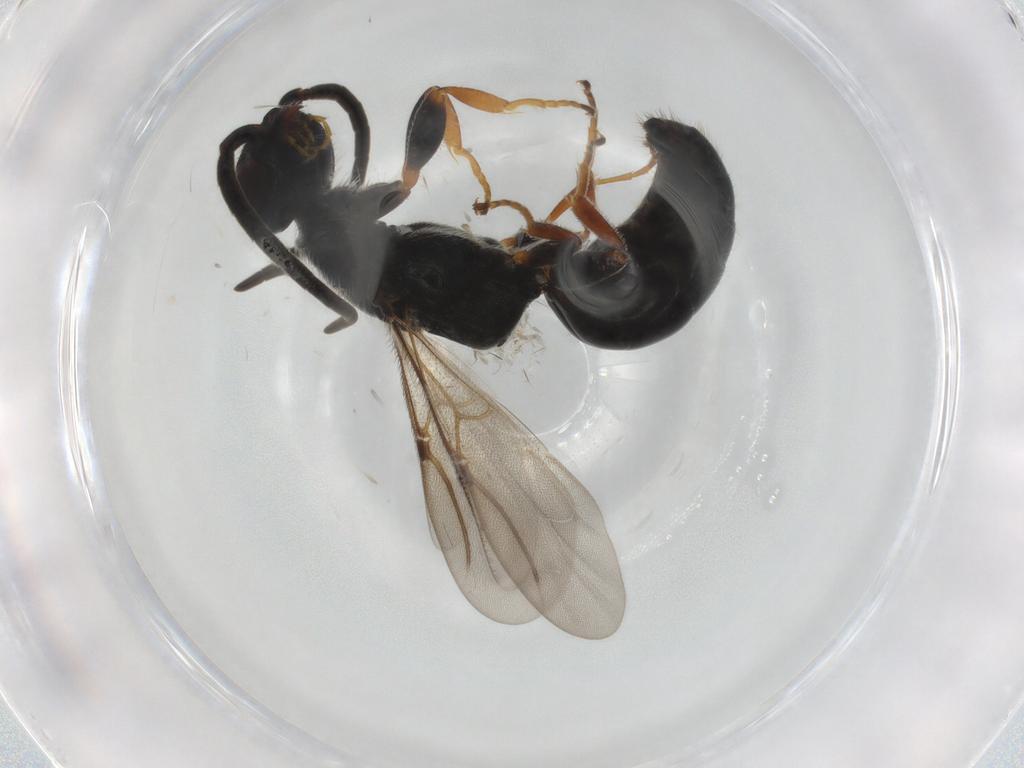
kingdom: Animalia
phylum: Arthropoda
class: Insecta
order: Hymenoptera
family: Bethylidae
